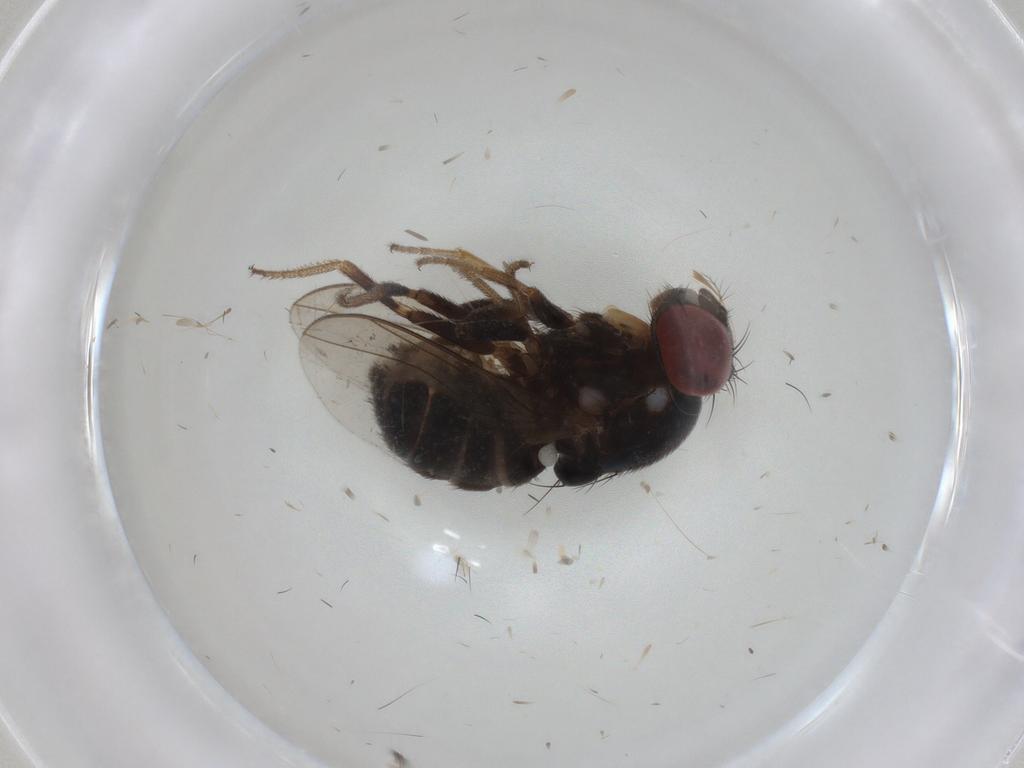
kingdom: Animalia
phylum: Arthropoda
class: Insecta
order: Diptera
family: Drosophilidae
